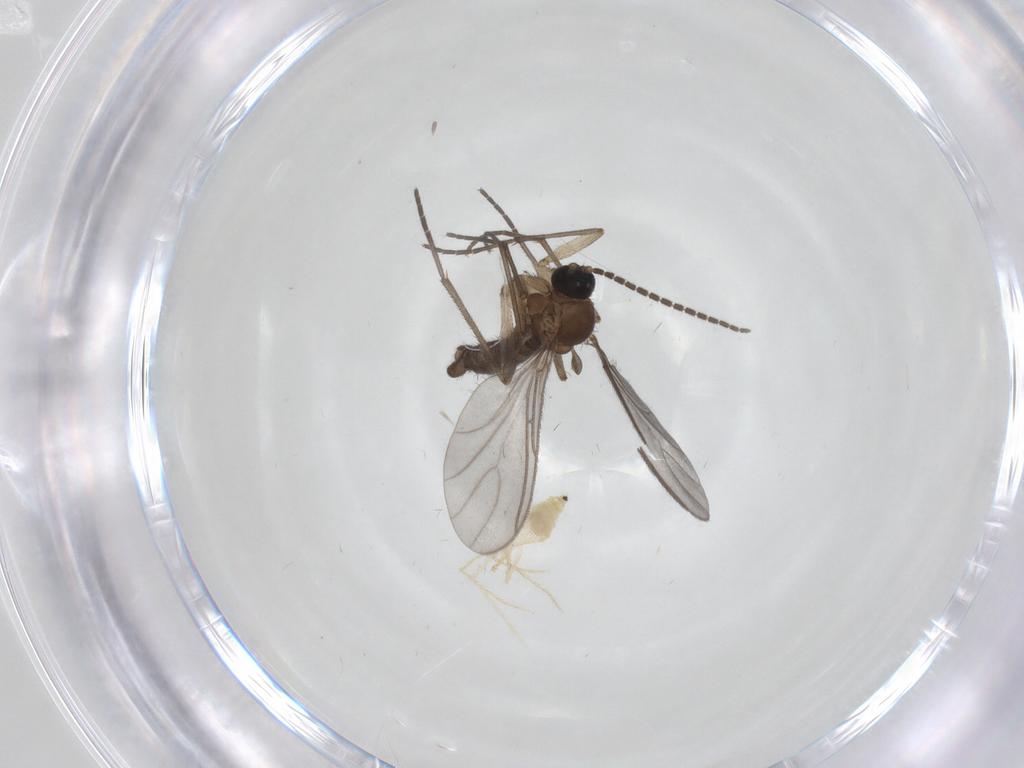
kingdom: Animalia
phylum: Arthropoda
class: Insecta
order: Diptera
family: Sciaridae
